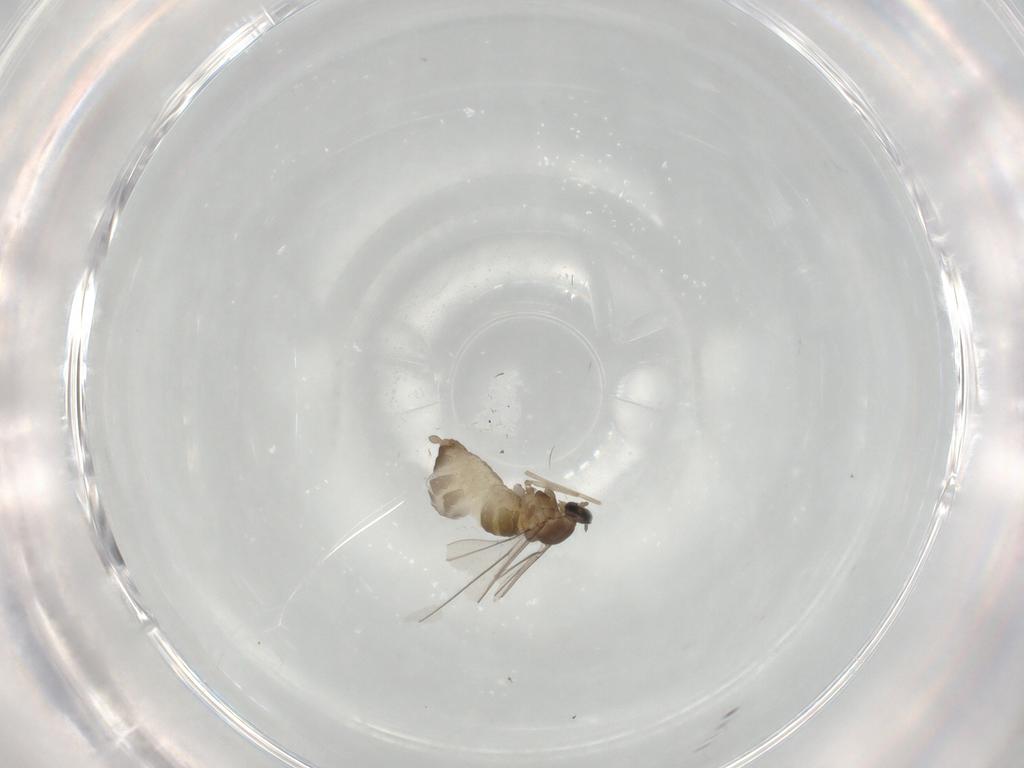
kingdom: Animalia
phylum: Arthropoda
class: Insecta
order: Diptera
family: Cecidomyiidae
